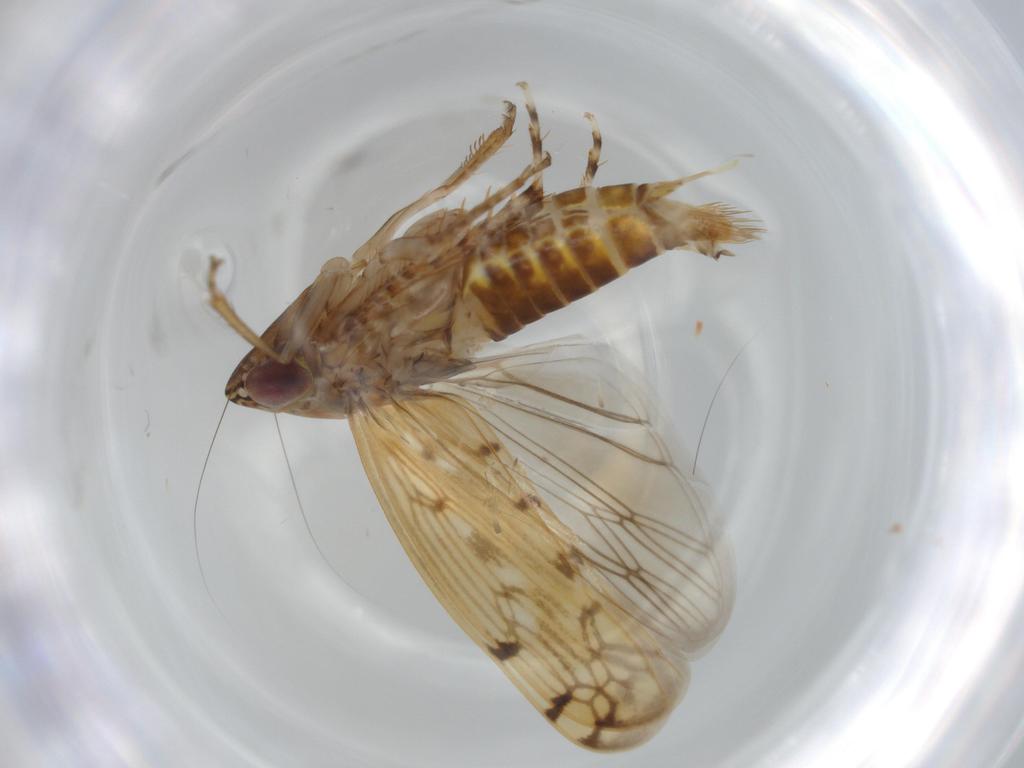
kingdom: Animalia
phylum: Arthropoda
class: Insecta
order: Hemiptera
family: Cicadellidae
